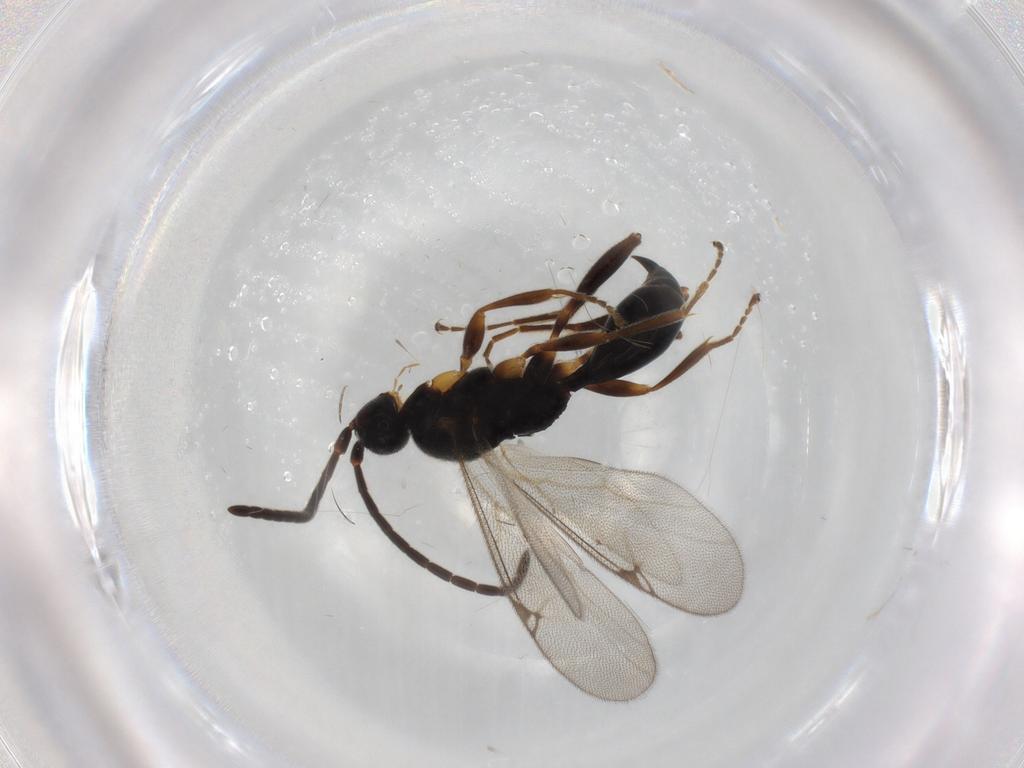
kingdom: Animalia
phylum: Arthropoda
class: Insecta
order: Hymenoptera
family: Proctotrupidae
